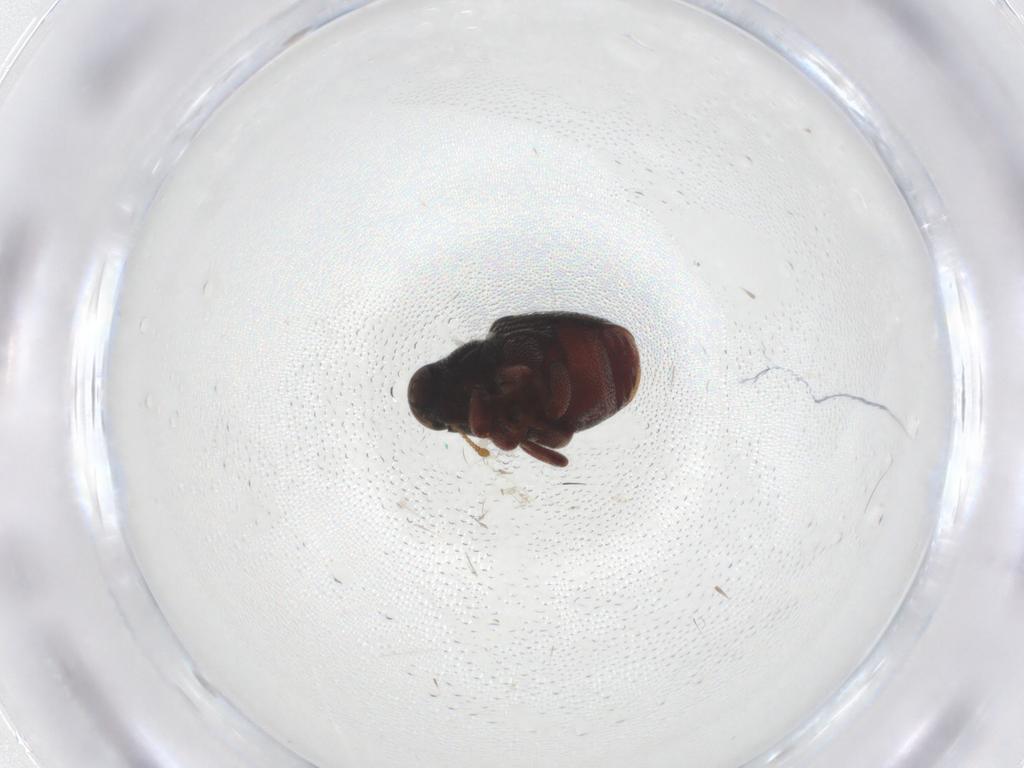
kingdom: Animalia
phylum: Arthropoda
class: Insecta
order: Coleoptera
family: Curculionidae
